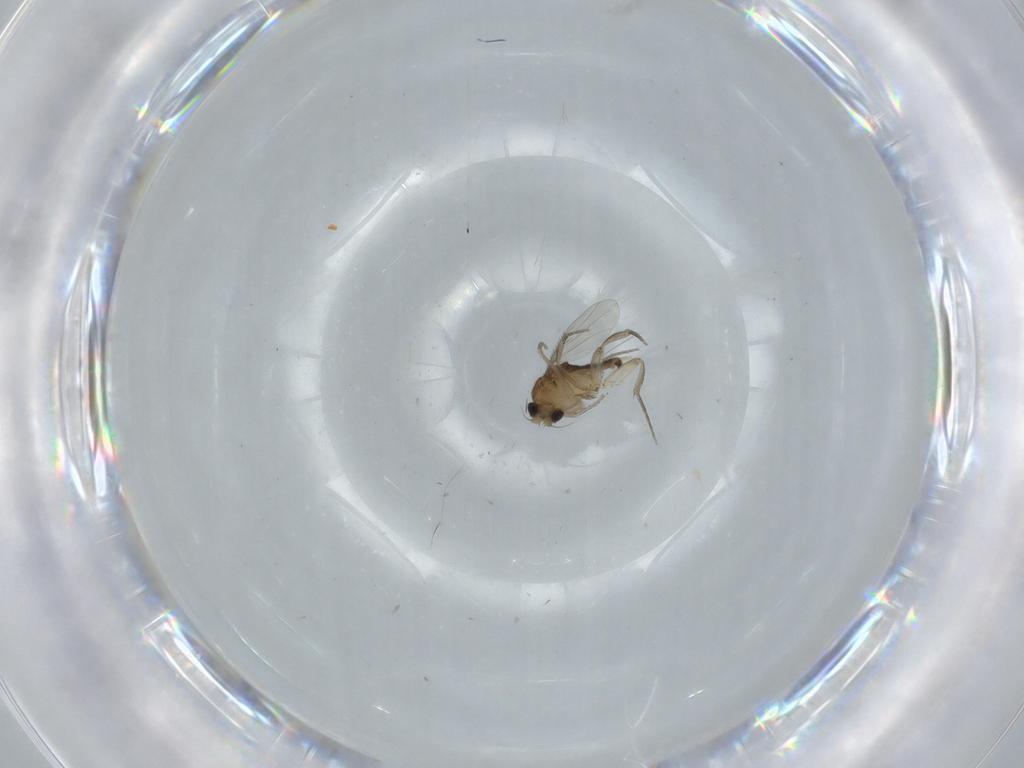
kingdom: Animalia
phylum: Arthropoda
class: Insecta
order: Diptera
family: Phoridae
